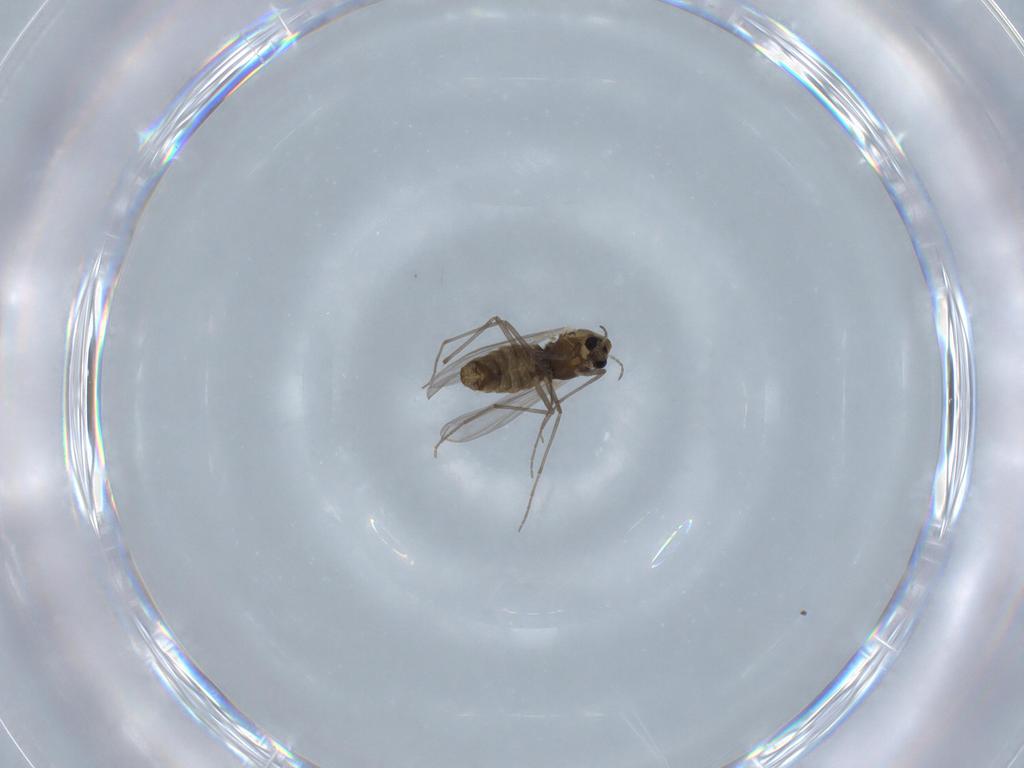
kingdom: Animalia
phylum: Arthropoda
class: Insecta
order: Diptera
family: Chironomidae
